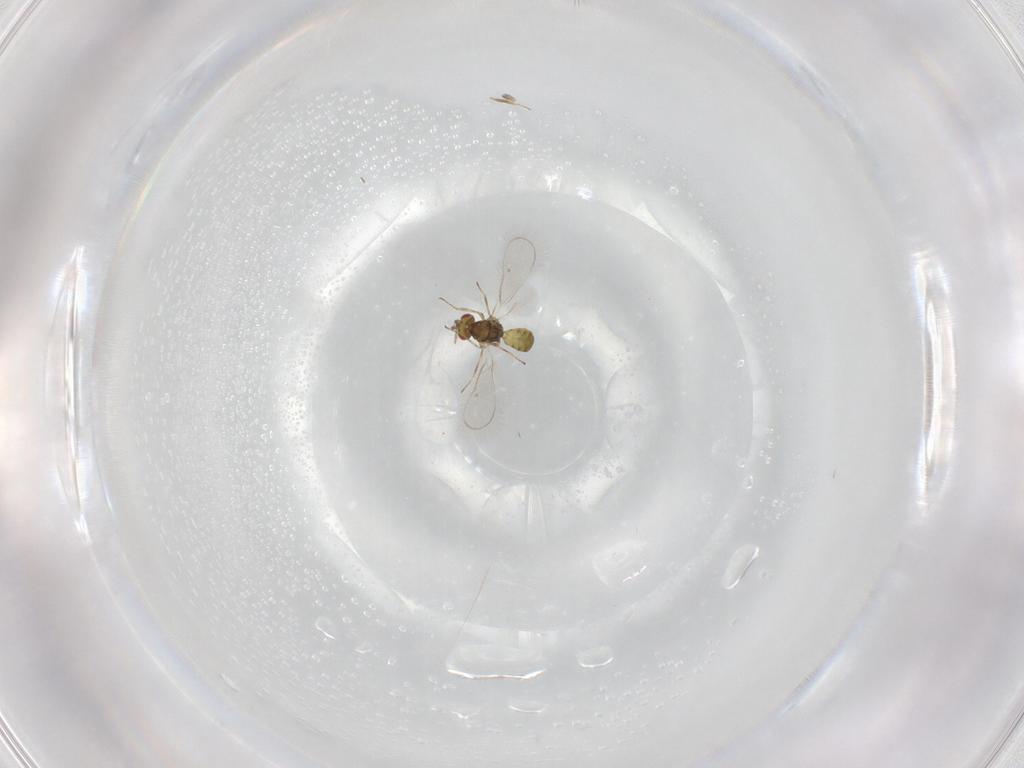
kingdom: Animalia
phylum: Arthropoda
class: Insecta
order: Hymenoptera
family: Eulophidae
